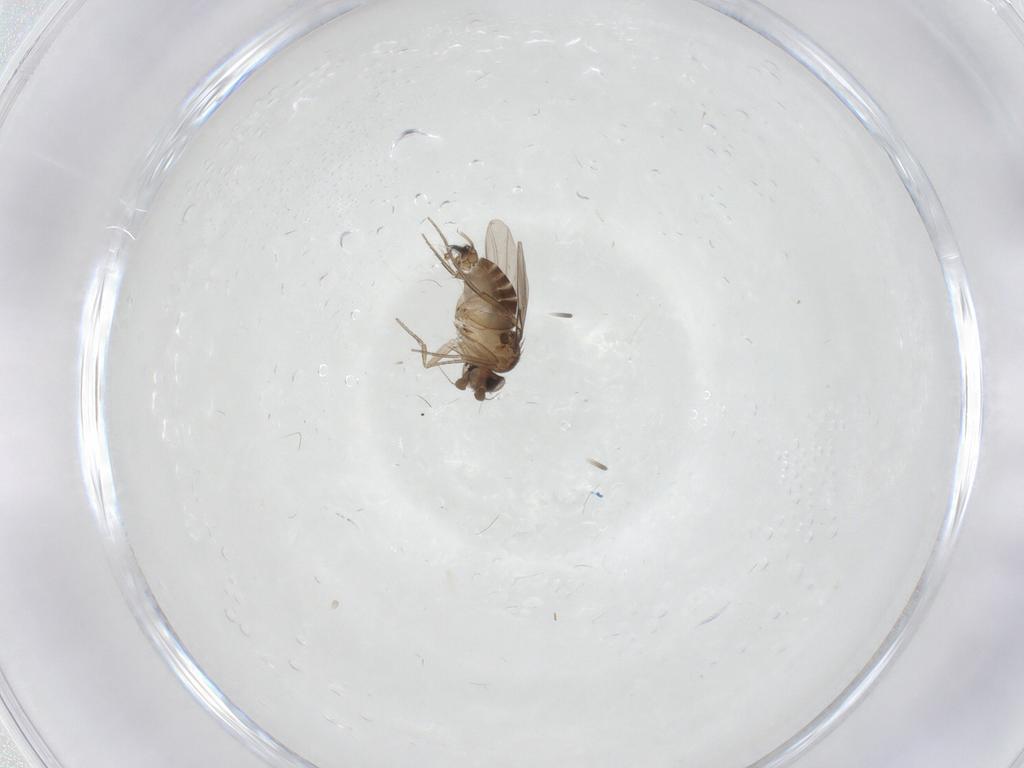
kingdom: Animalia
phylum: Arthropoda
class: Insecta
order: Diptera
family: Phoridae
